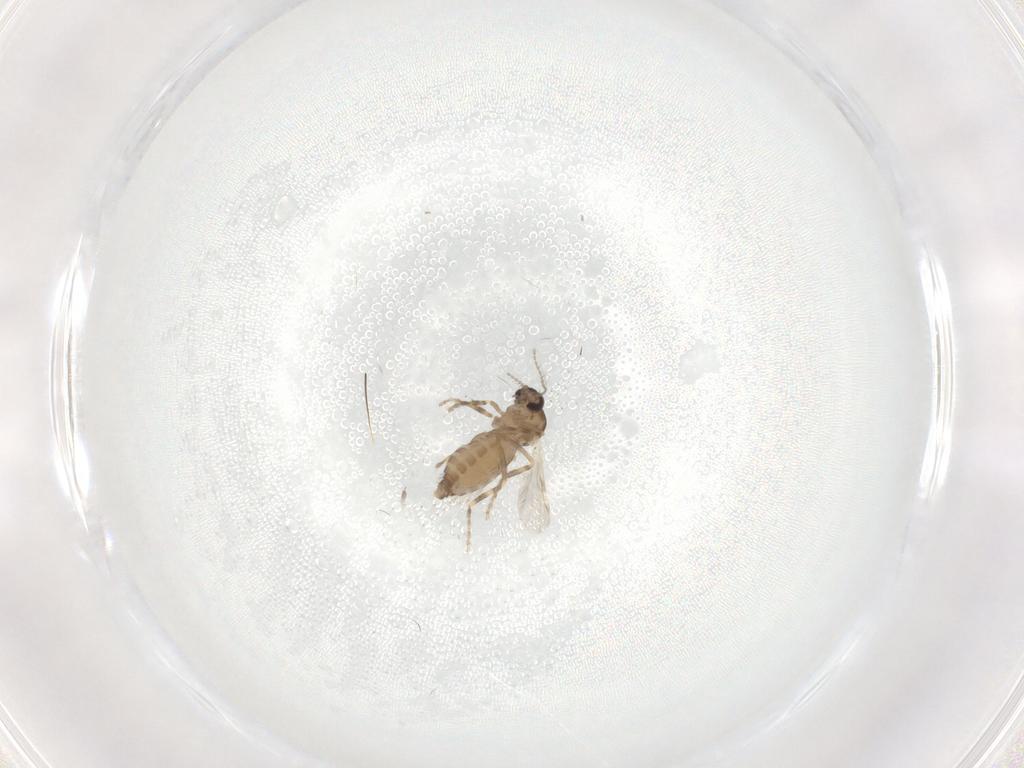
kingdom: Animalia
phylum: Arthropoda
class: Insecta
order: Diptera
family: Ceratopogonidae
